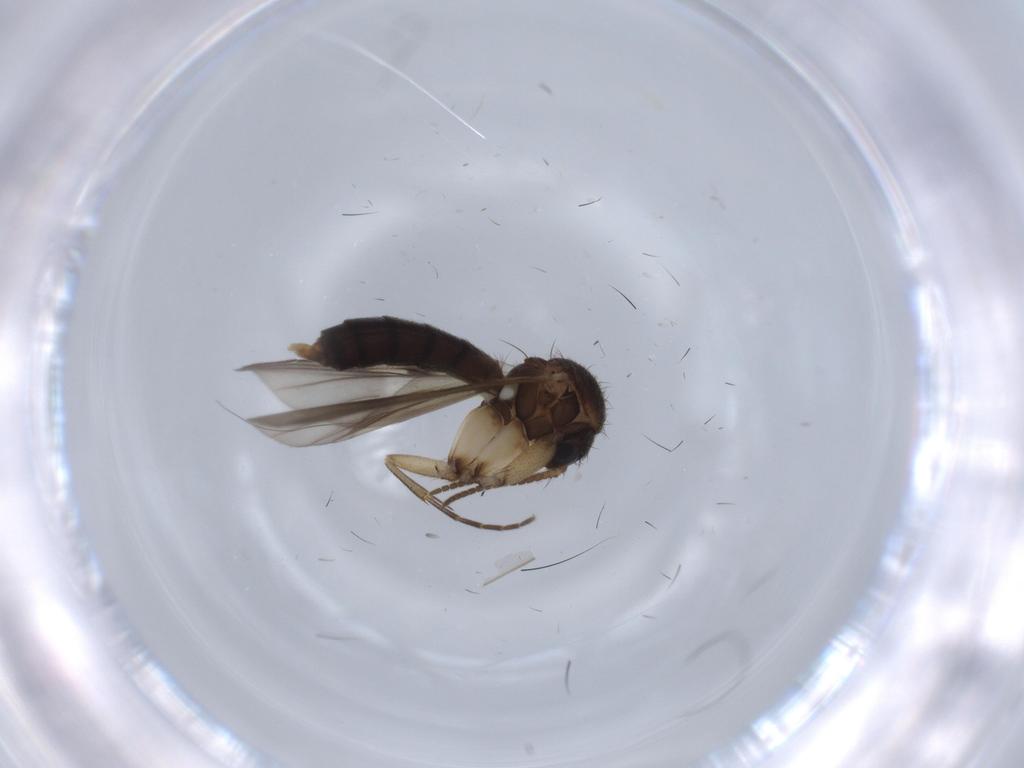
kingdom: Animalia
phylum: Arthropoda
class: Insecta
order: Diptera
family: Mycetophilidae
